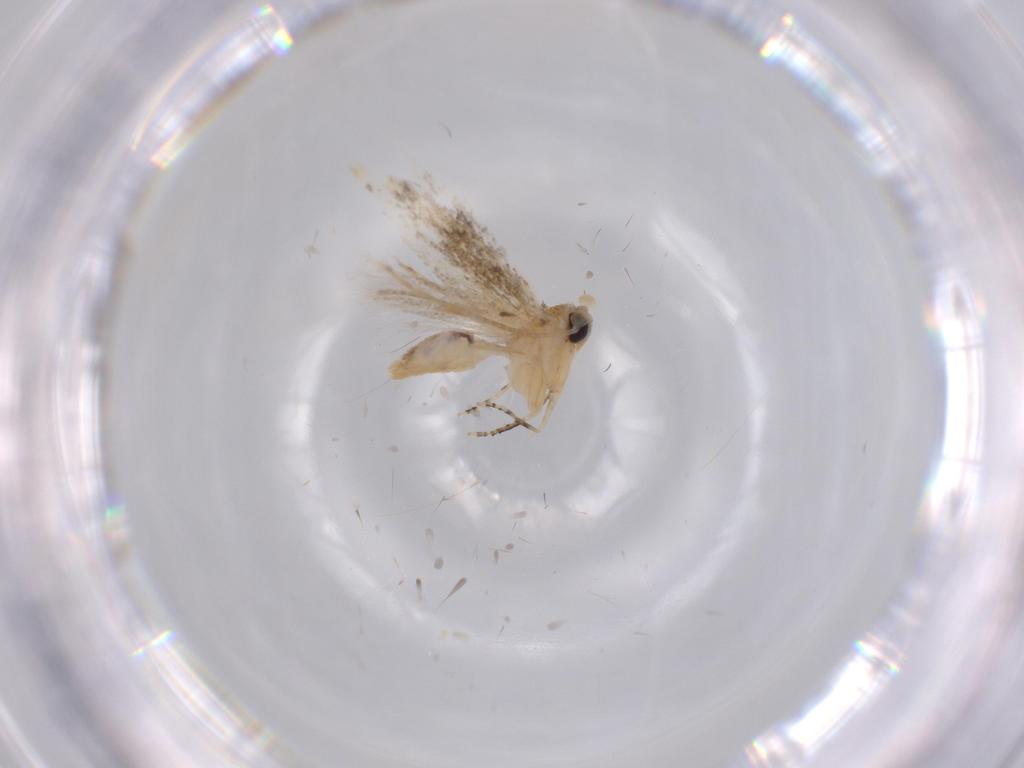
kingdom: Animalia
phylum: Arthropoda
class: Insecta
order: Lepidoptera
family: Bucculatricidae
